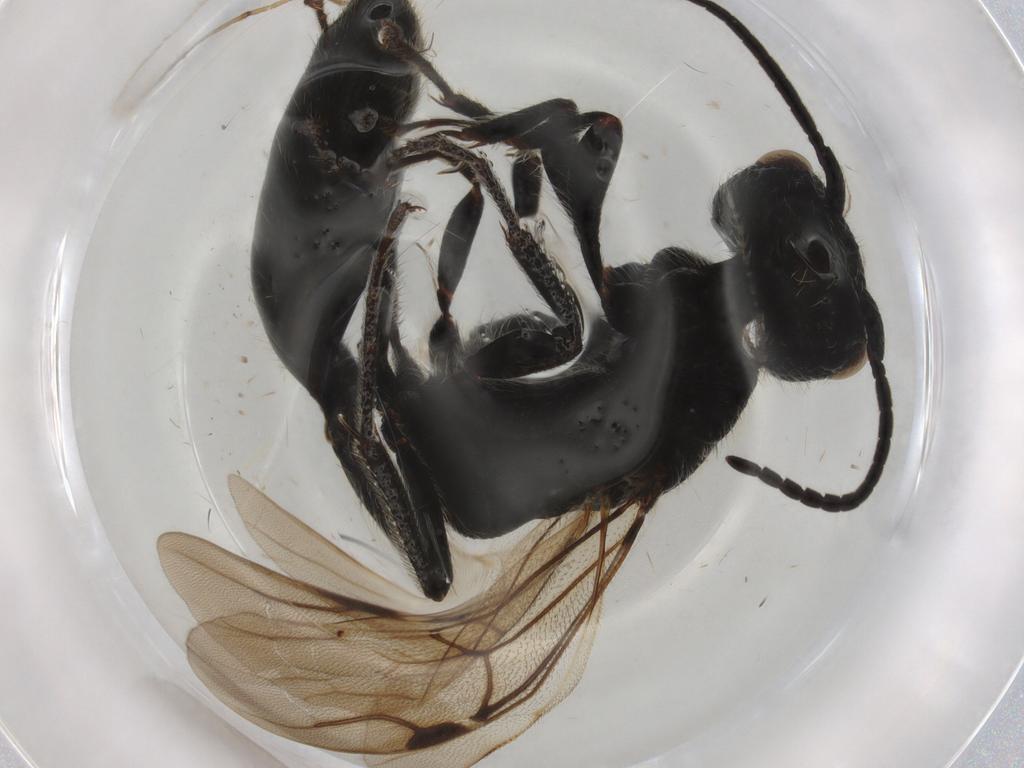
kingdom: Animalia
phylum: Arthropoda
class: Insecta
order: Hymenoptera
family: Bethylidae
